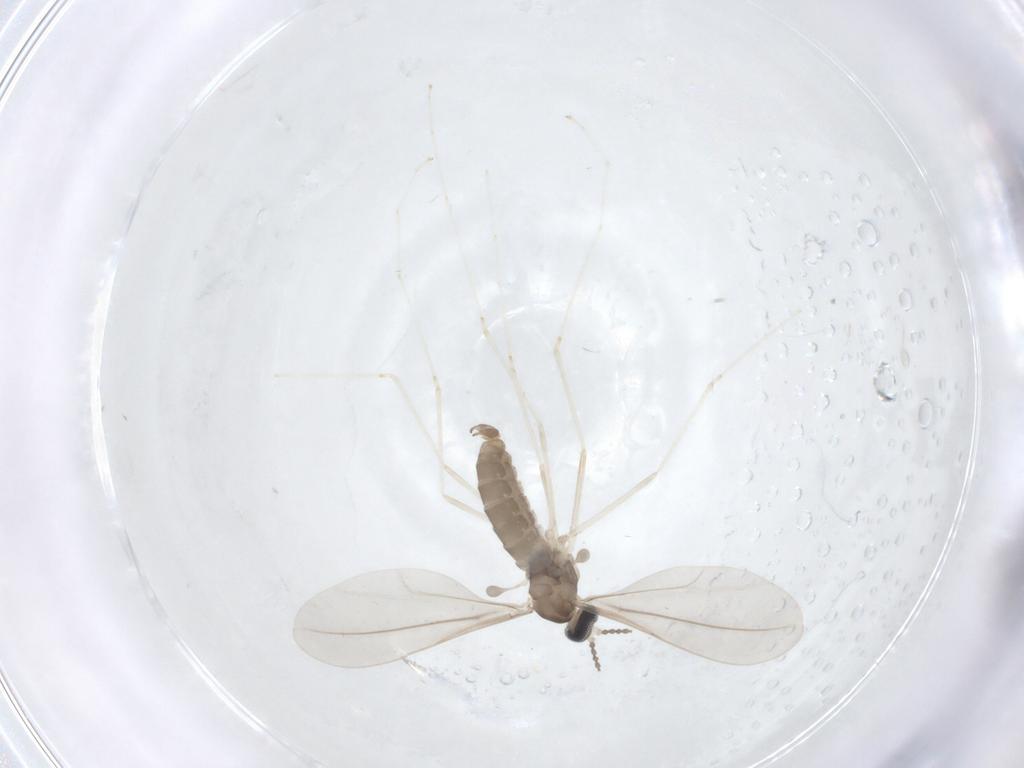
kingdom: Animalia
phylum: Arthropoda
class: Insecta
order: Diptera
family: Cecidomyiidae
